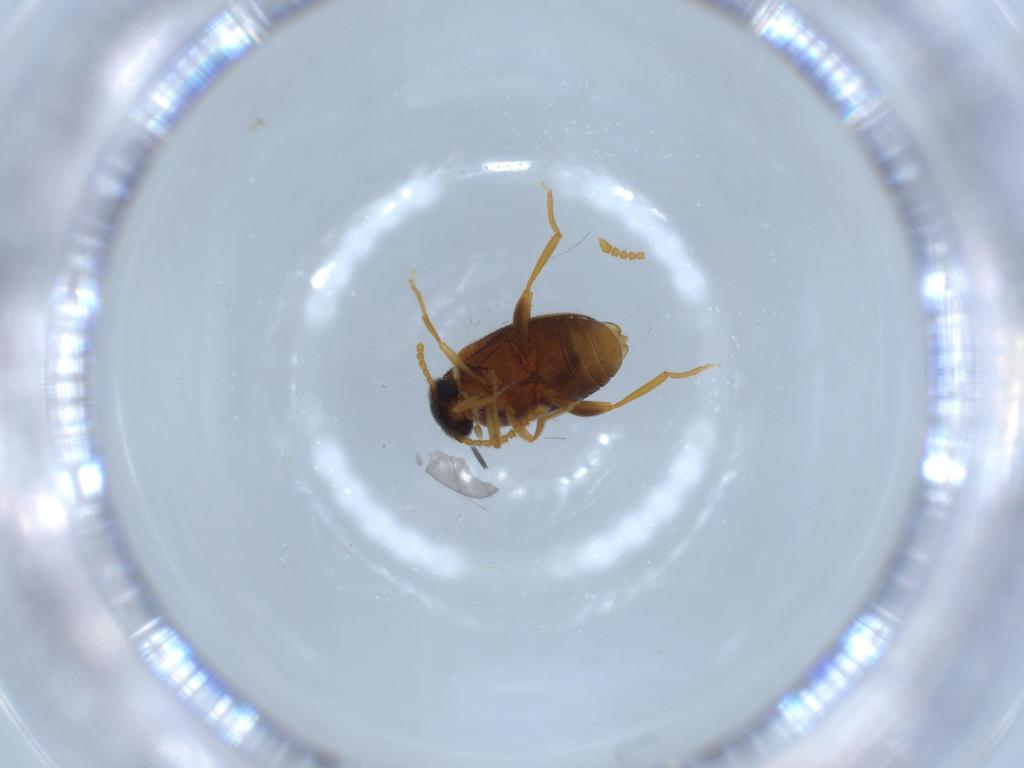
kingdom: Animalia
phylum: Arthropoda
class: Insecta
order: Coleoptera
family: Aderidae
